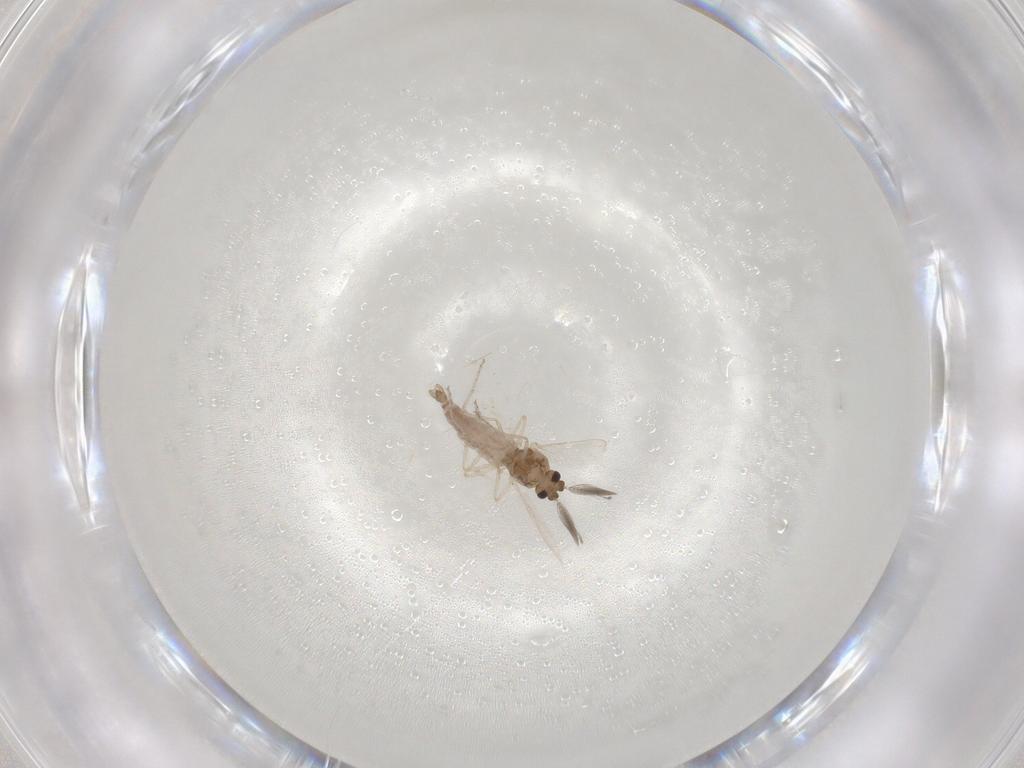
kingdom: Animalia
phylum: Arthropoda
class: Insecta
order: Diptera
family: Ceratopogonidae
